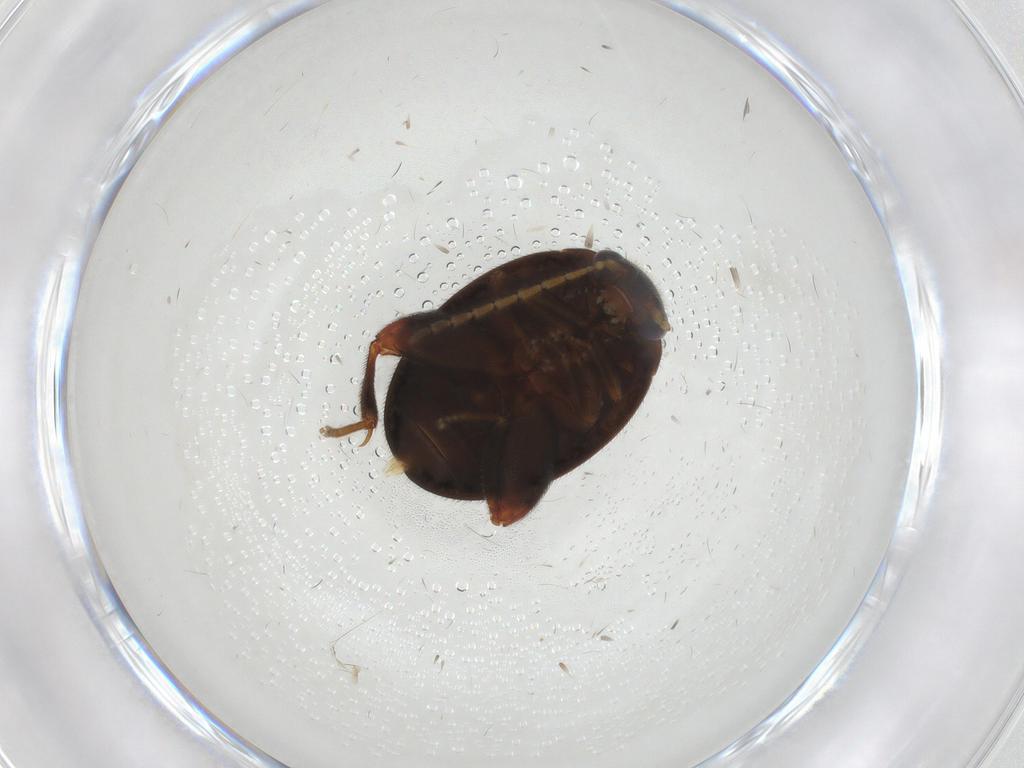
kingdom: Animalia
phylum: Arthropoda
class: Insecta
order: Coleoptera
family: Scirtidae
